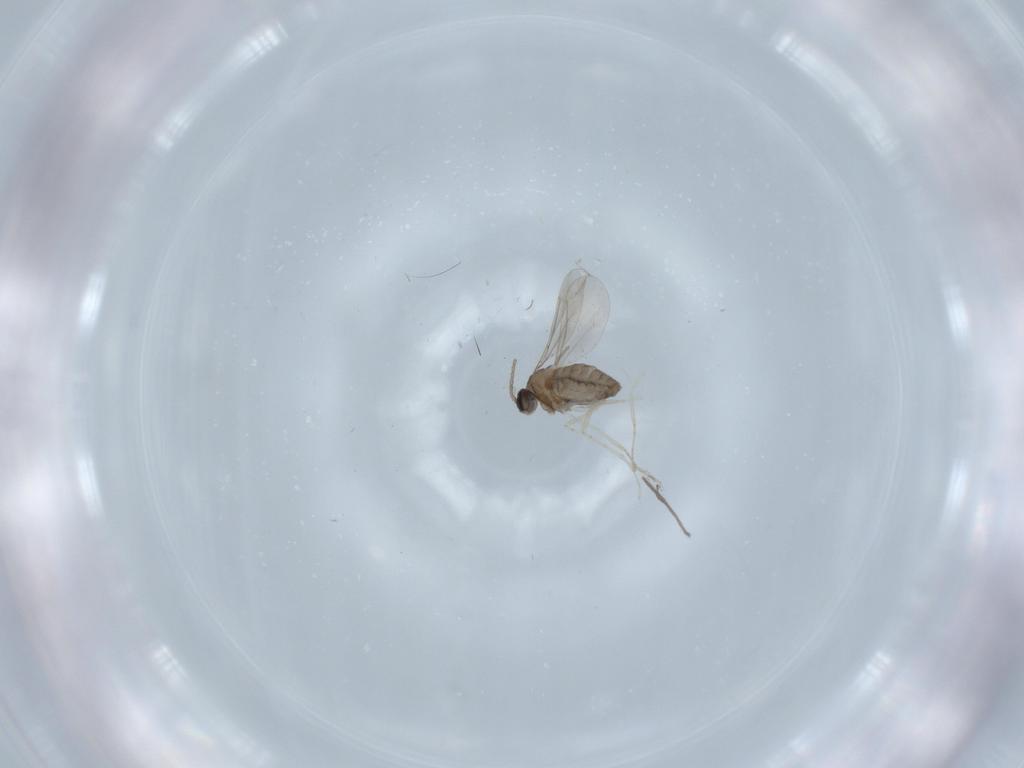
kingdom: Animalia
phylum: Arthropoda
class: Insecta
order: Diptera
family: Chironomidae
